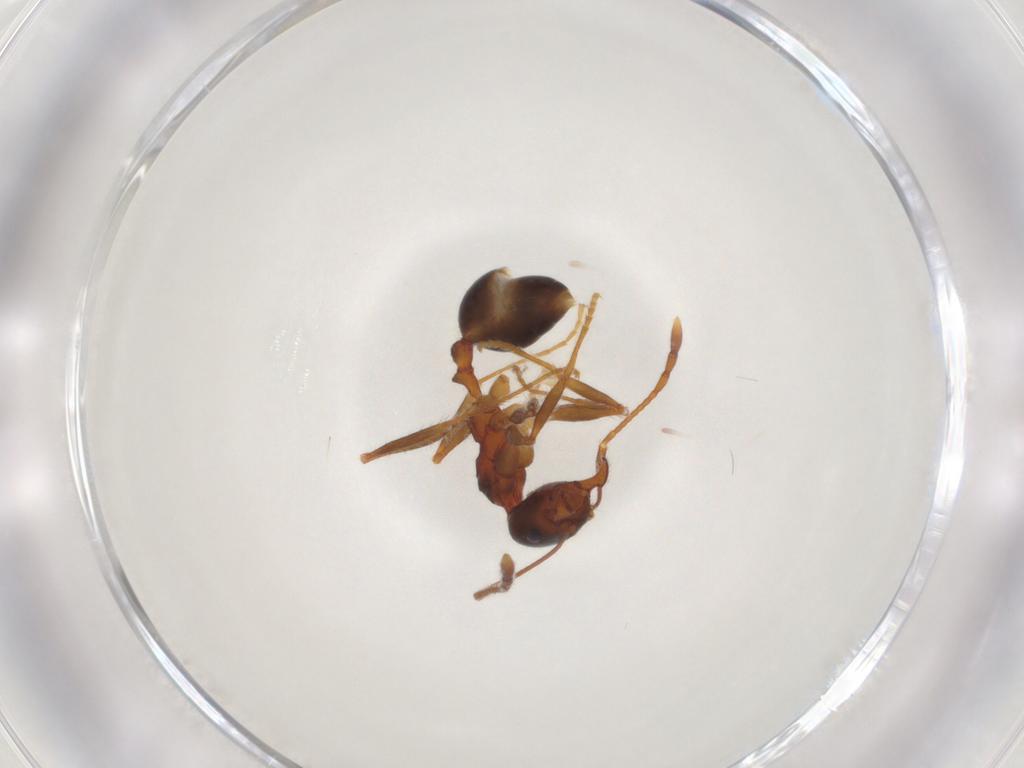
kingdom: Animalia
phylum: Arthropoda
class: Insecta
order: Hymenoptera
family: Formicidae
